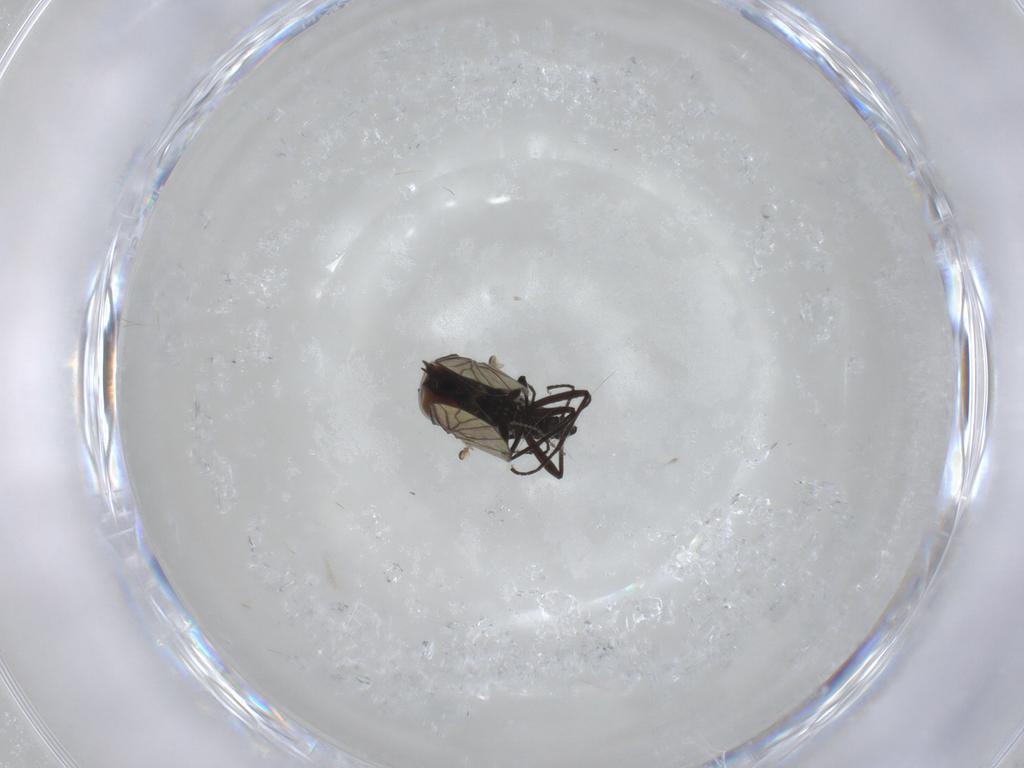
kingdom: Animalia
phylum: Arthropoda
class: Insecta
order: Diptera
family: Bombyliidae
